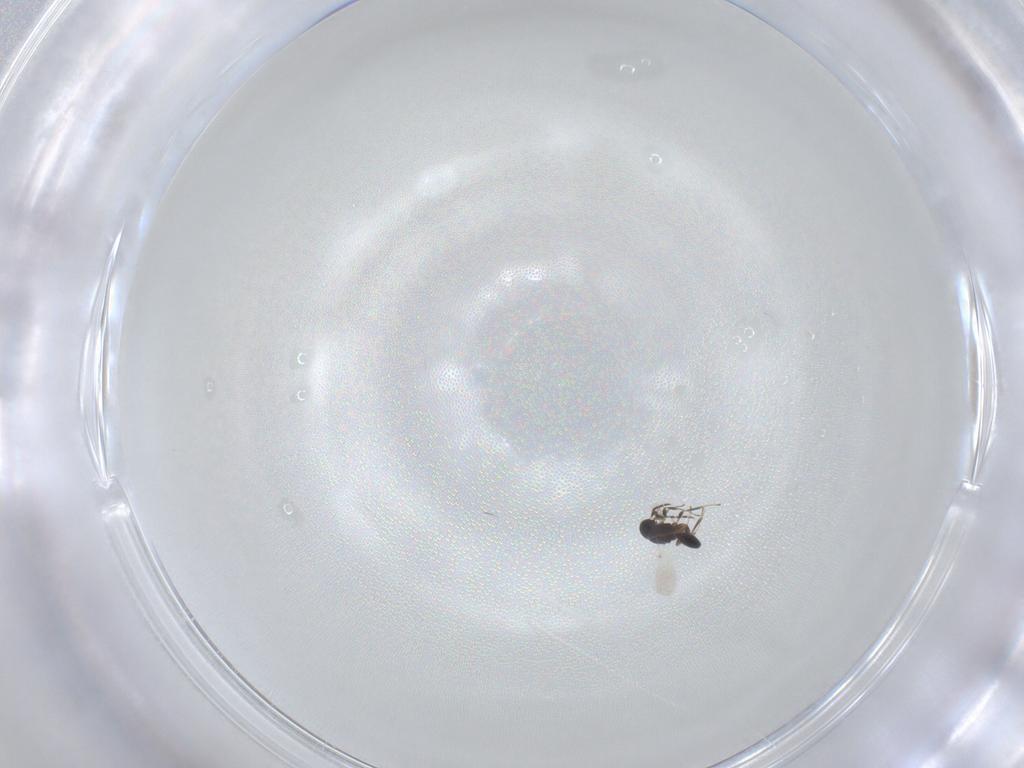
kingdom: Animalia
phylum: Arthropoda
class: Insecta
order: Hymenoptera
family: Platygastridae
